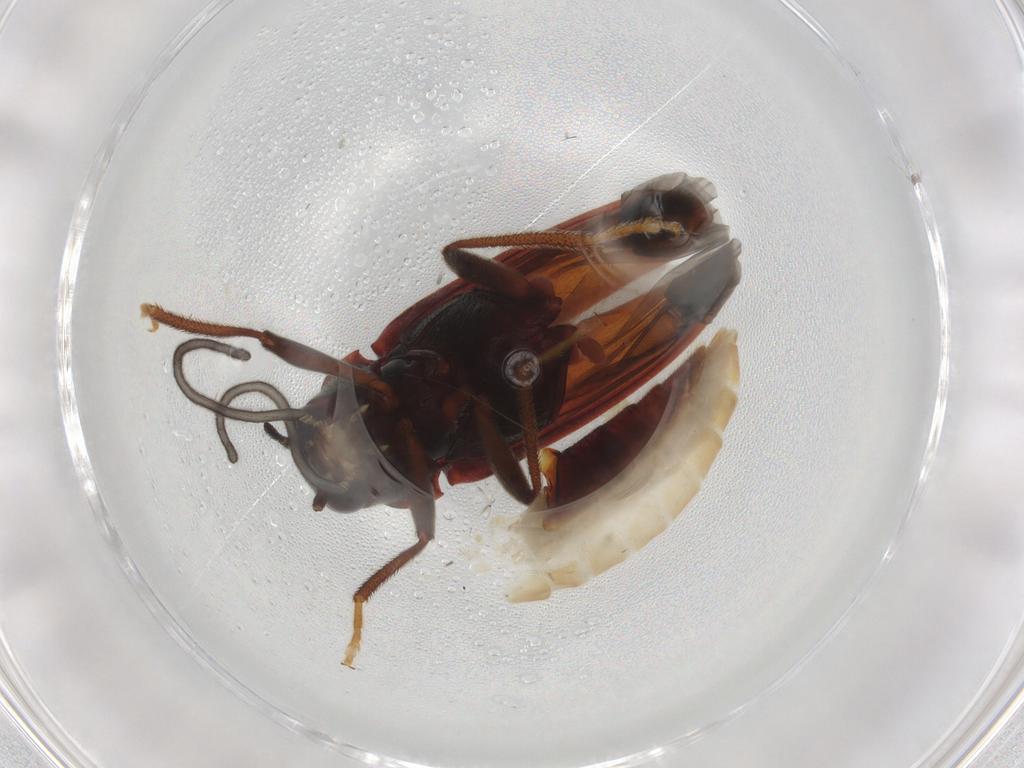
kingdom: Animalia
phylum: Arthropoda
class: Insecta
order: Coleoptera
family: Ptilodactylidae
